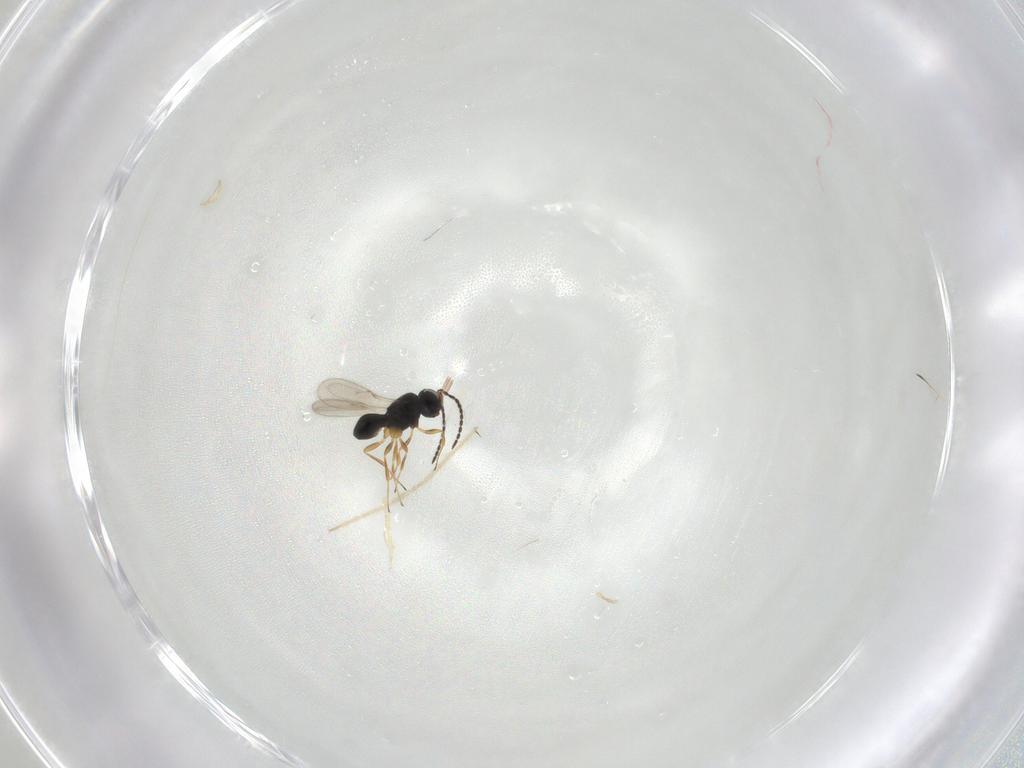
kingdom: Animalia
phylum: Arthropoda
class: Insecta
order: Hymenoptera
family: Scelionidae
